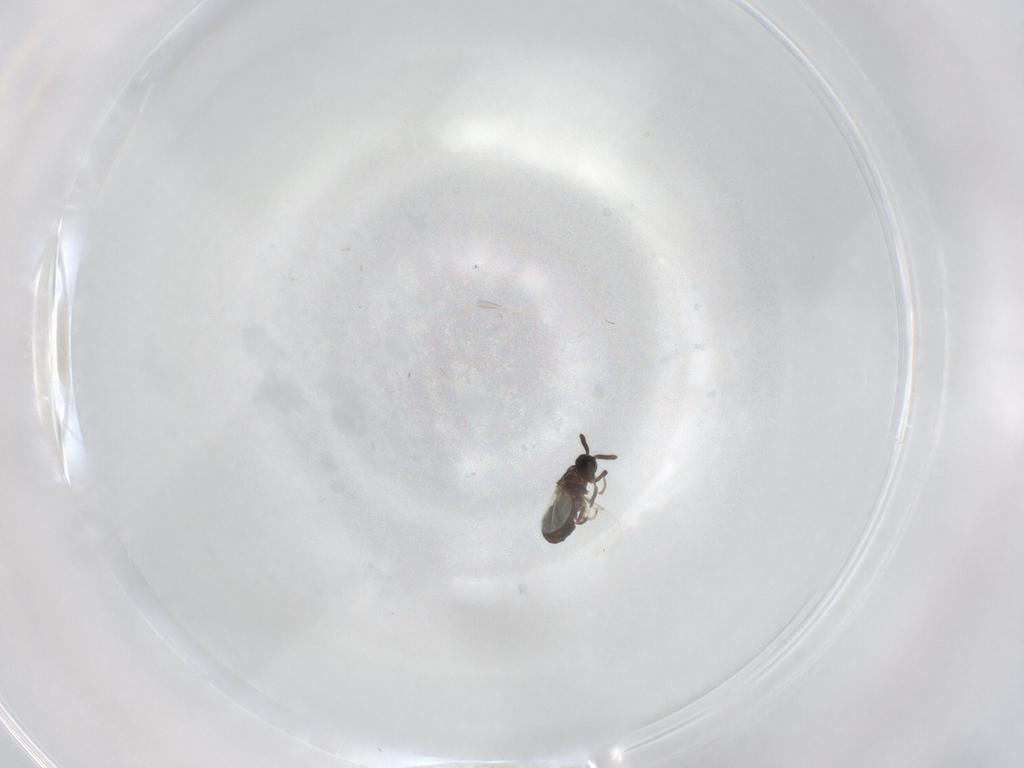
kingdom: Animalia
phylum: Arthropoda
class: Insecta
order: Diptera
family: Scatopsidae
